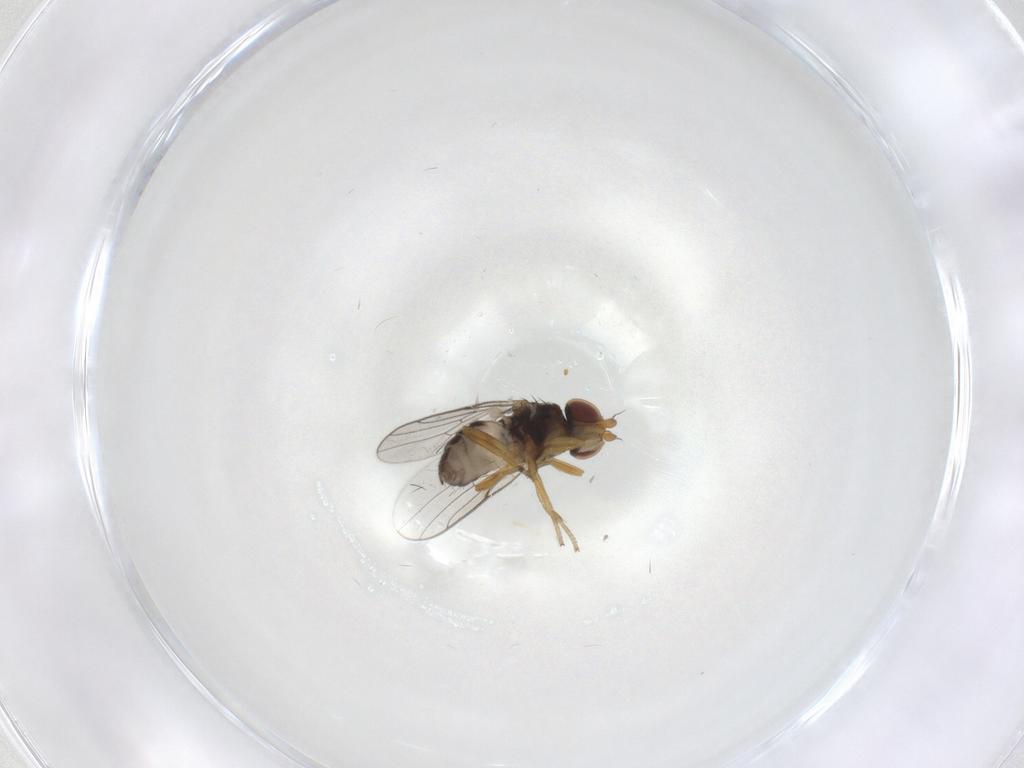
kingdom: Animalia
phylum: Arthropoda
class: Insecta
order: Diptera
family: Chloropidae
